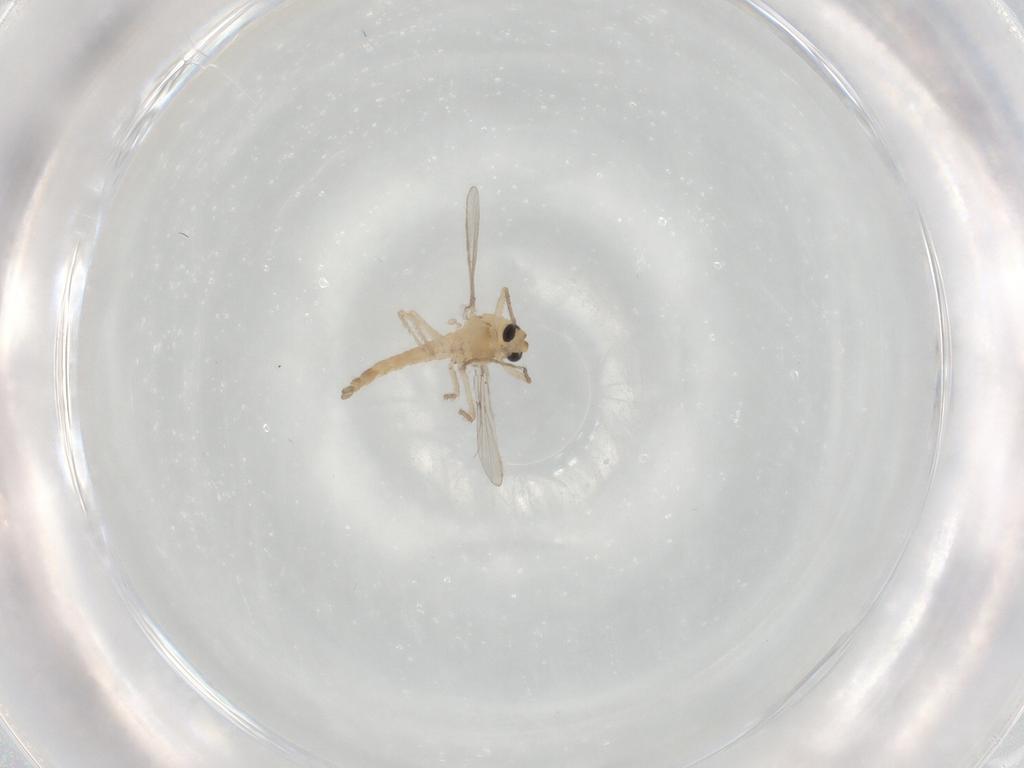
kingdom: Animalia
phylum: Arthropoda
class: Insecta
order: Diptera
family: Chironomidae
